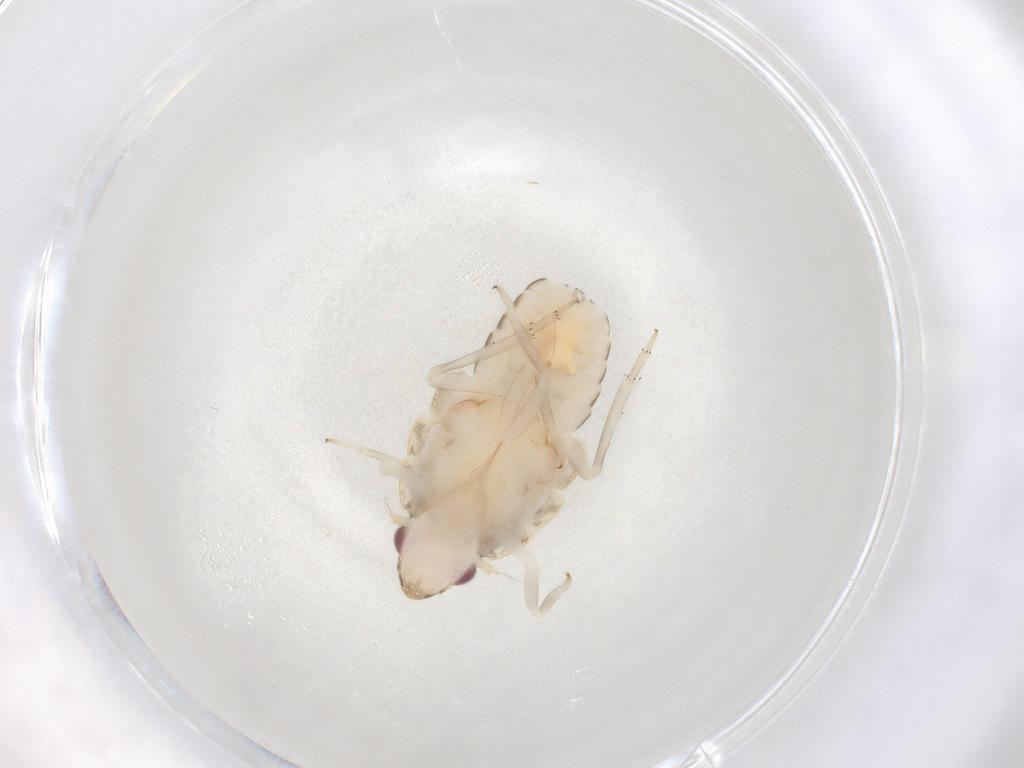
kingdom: Animalia
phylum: Arthropoda
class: Insecta
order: Hemiptera
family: Fulgoroidea_incertae_sedis
